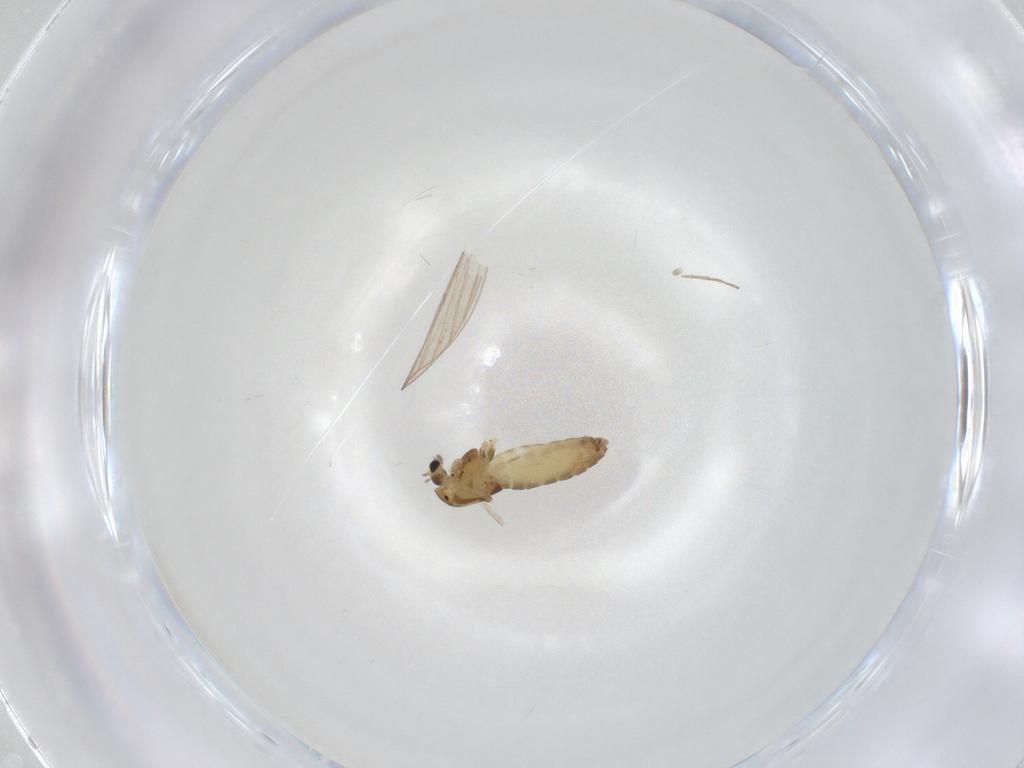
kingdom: Animalia
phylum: Arthropoda
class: Insecta
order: Diptera
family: Chironomidae
